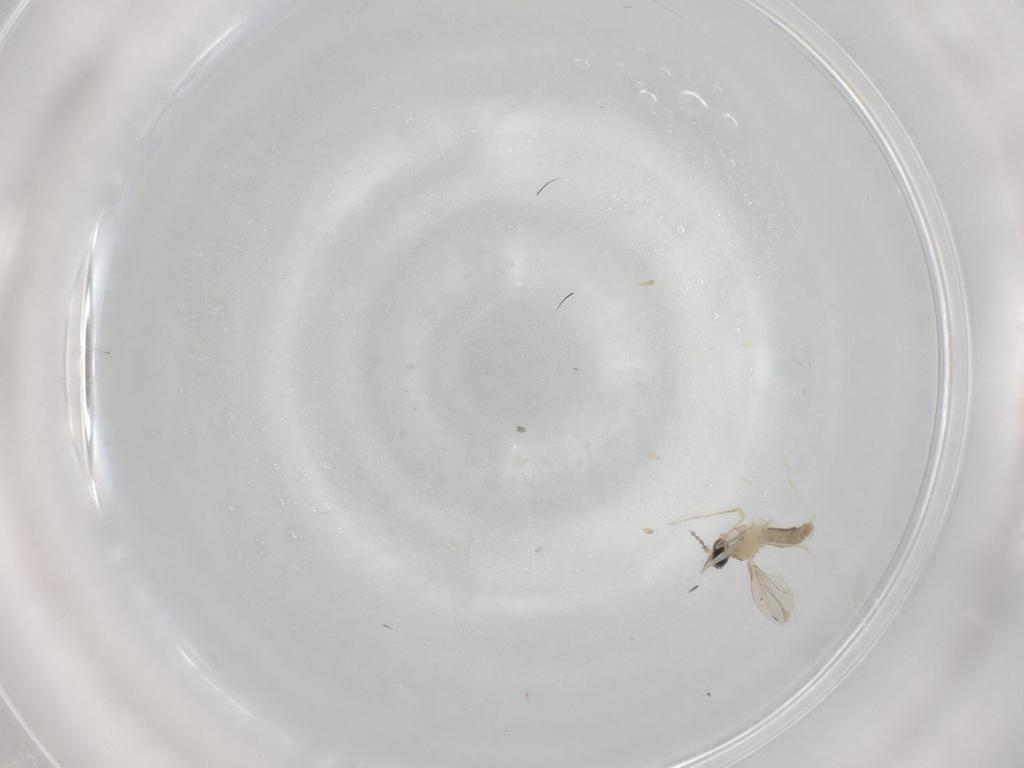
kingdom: Animalia
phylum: Arthropoda
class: Insecta
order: Diptera
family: Cecidomyiidae
